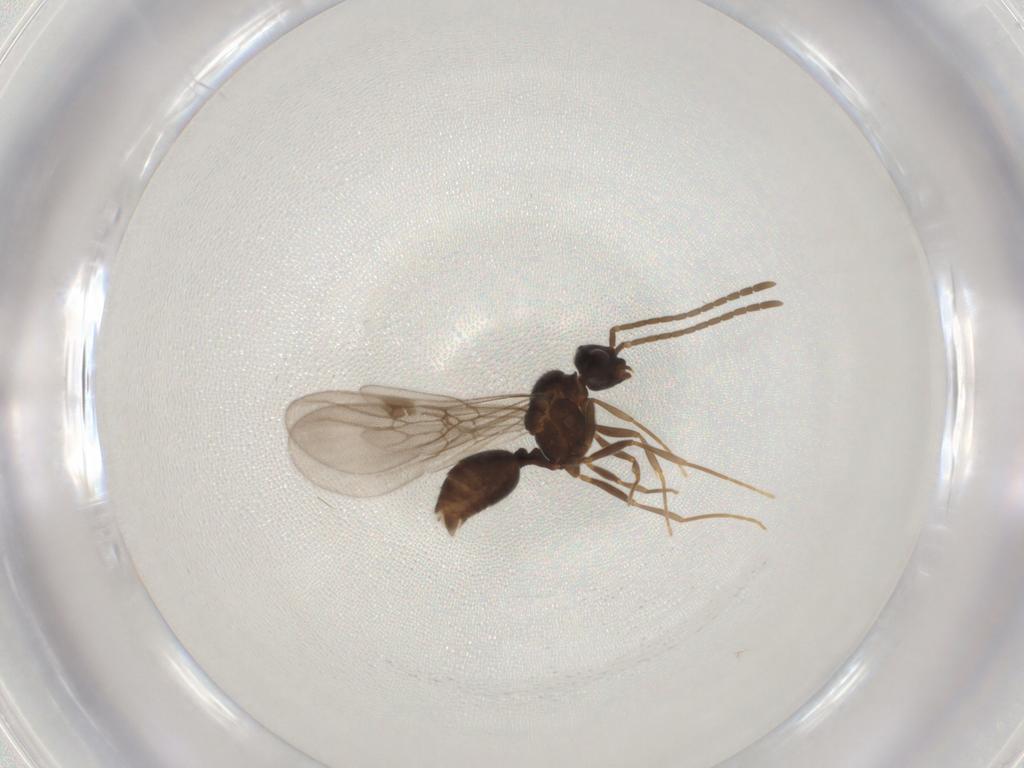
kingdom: Animalia
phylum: Arthropoda
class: Insecta
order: Hymenoptera
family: Formicidae
